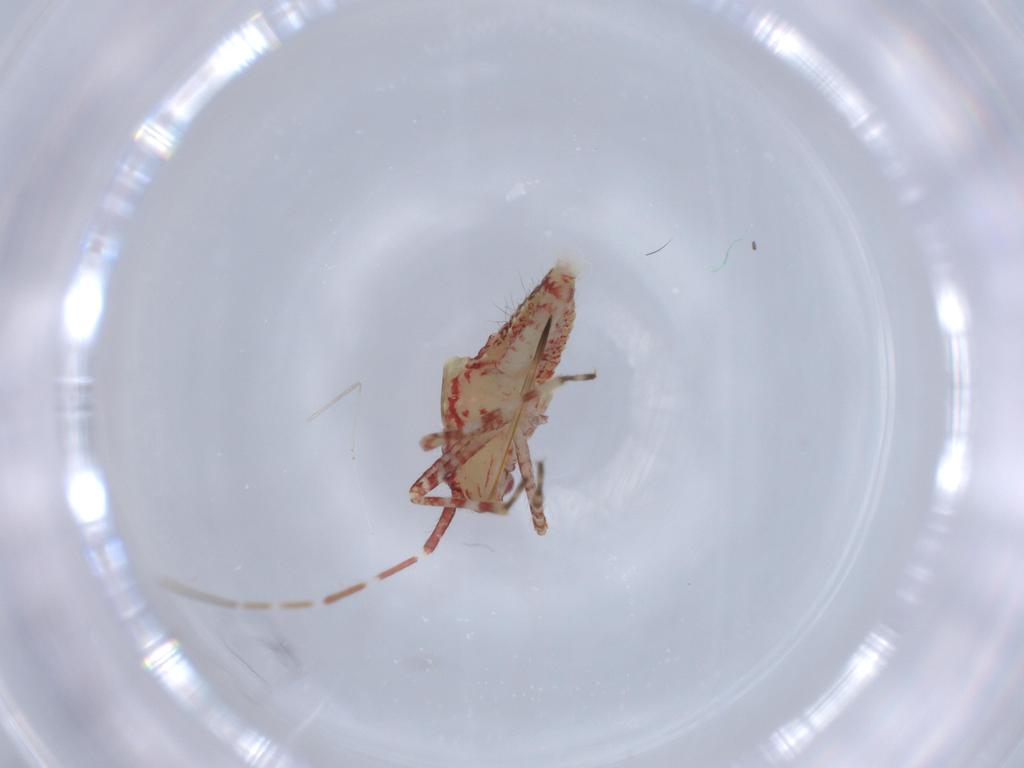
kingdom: Animalia
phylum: Arthropoda
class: Insecta
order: Hemiptera
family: Miridae
